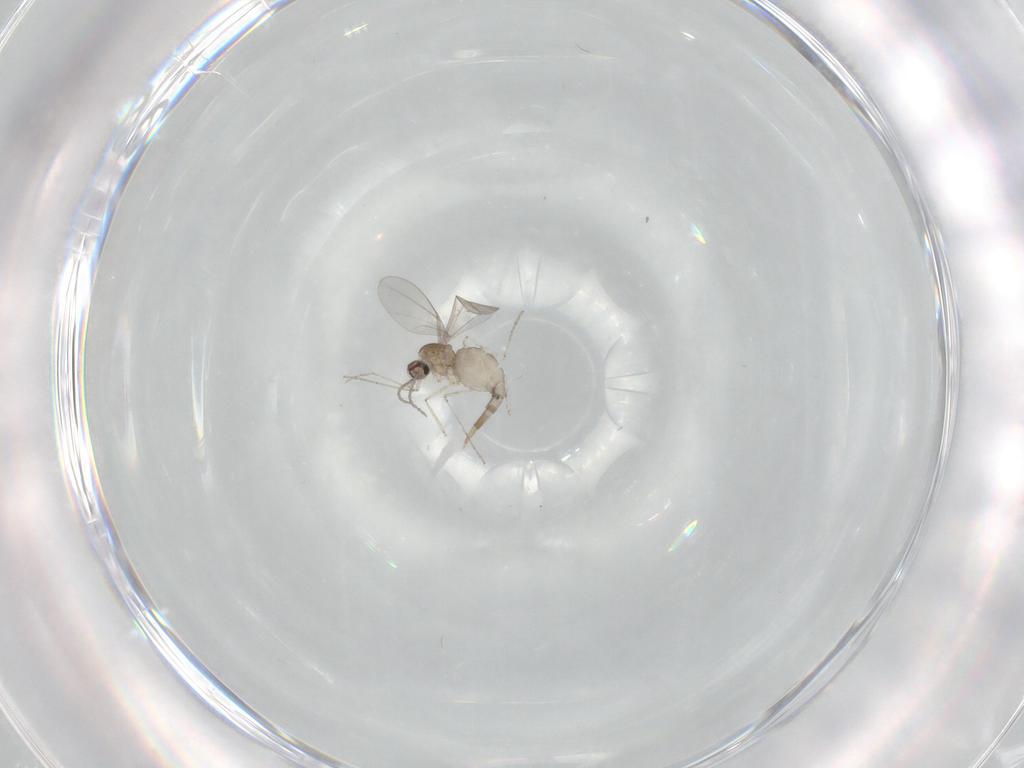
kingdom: Animalia
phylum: Arthropoda
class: Insecta
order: Diptera
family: Cecidomyiidae
